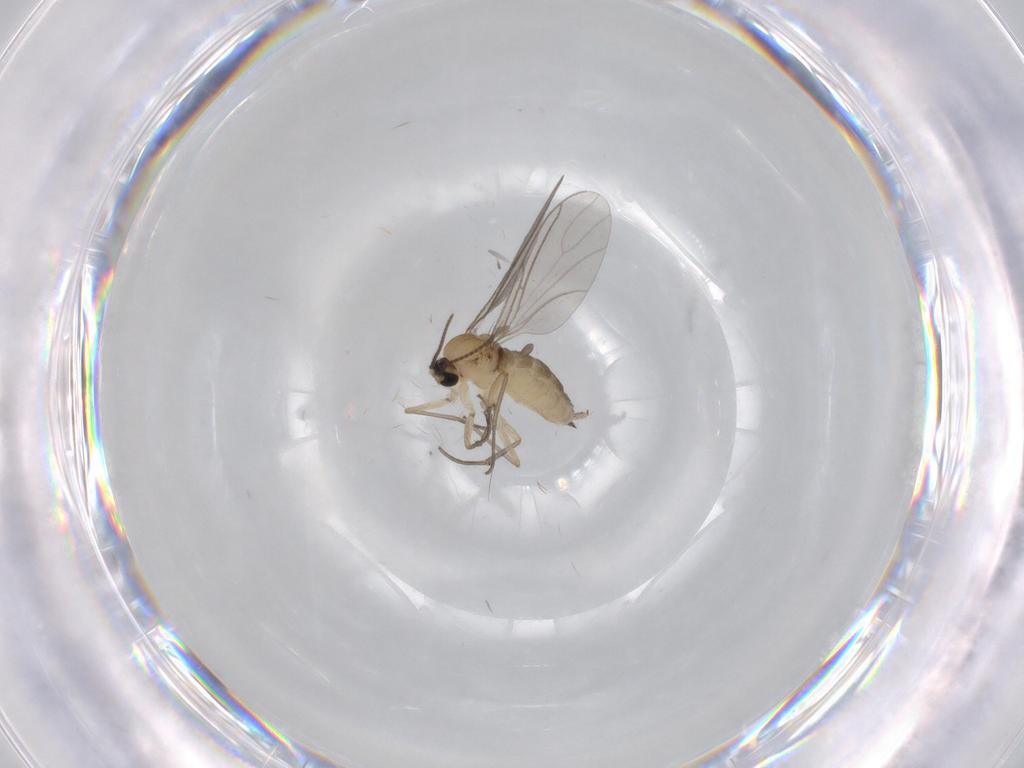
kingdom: Animalia
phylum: Arthropoda
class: Insecta
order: Diptera
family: Sciaridae
